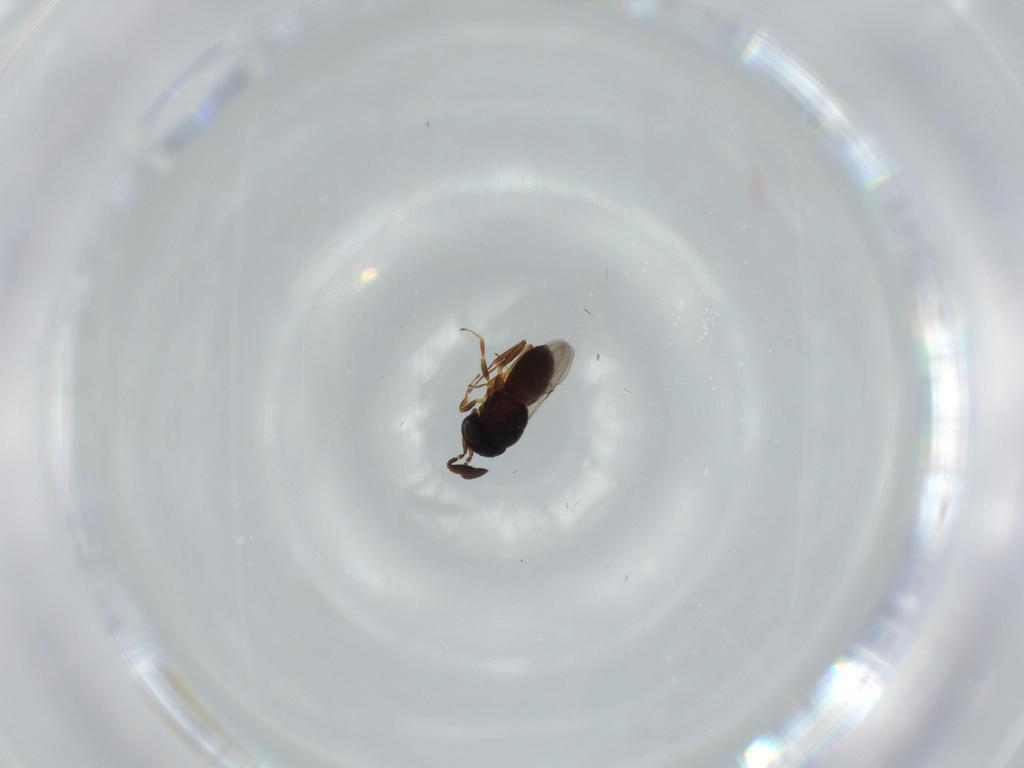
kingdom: Animalia
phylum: Arthropoda
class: Insecta
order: Hymenoptera
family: Scelionidae
